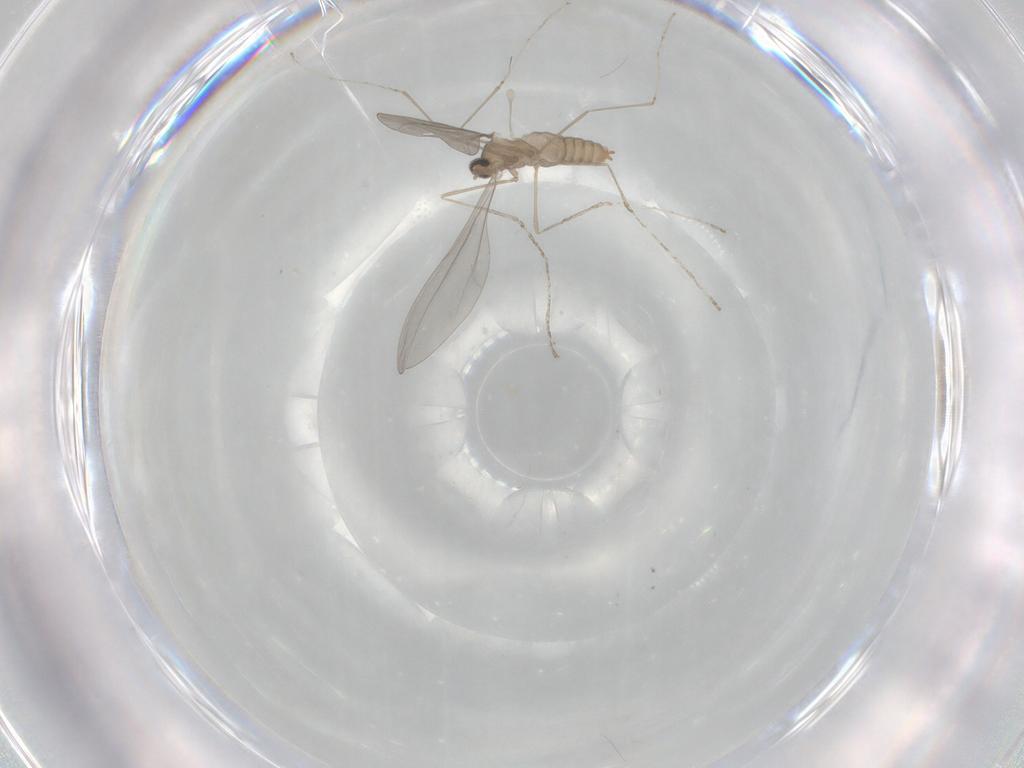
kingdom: Animalia
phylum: Arthropoda
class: Insecta
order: Diptera
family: Cecidomyiidae
